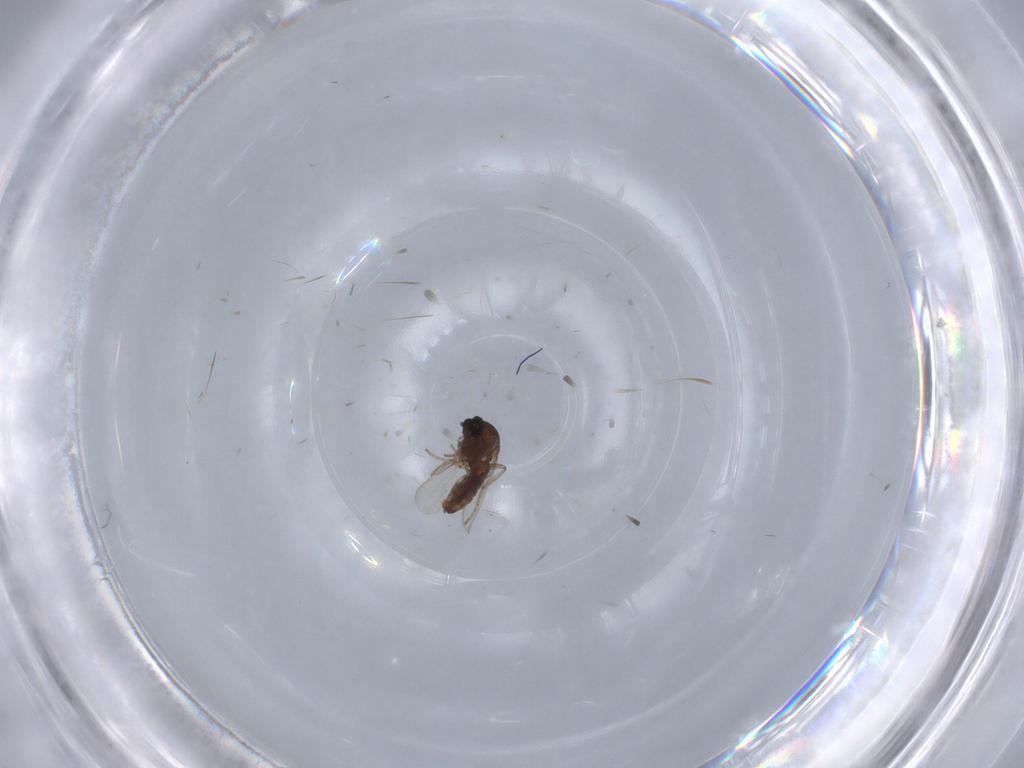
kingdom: Animalia
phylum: Arthropoda
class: Insecta
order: Diptera
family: Ceratopogonidae
